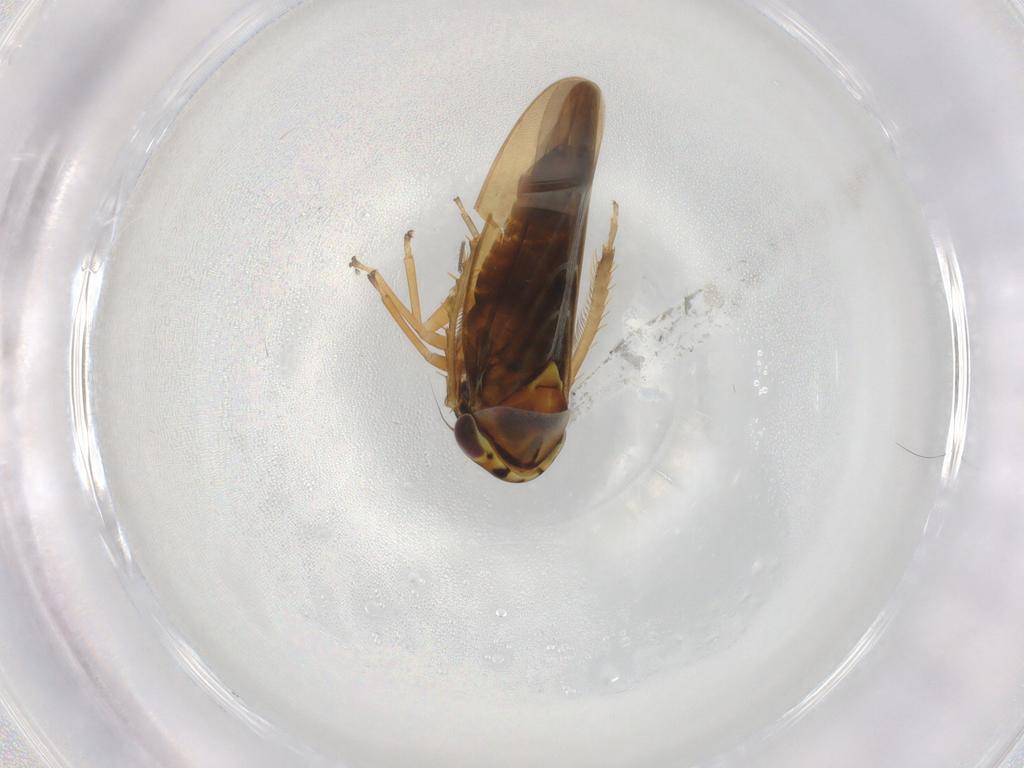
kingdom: Animalia
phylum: Arthropoda
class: Insecta
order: Hemiptera
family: Cicadellidae
